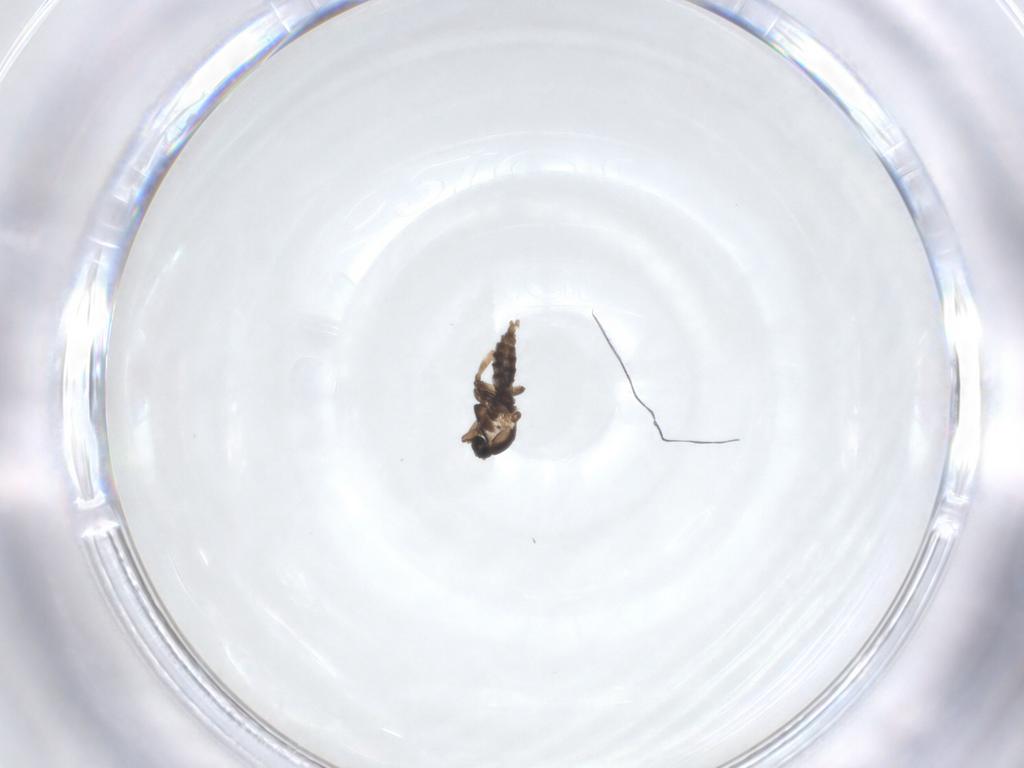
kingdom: Animalia
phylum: Arthropoda
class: Insecta
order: Diptera
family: Cecidomyiidae
